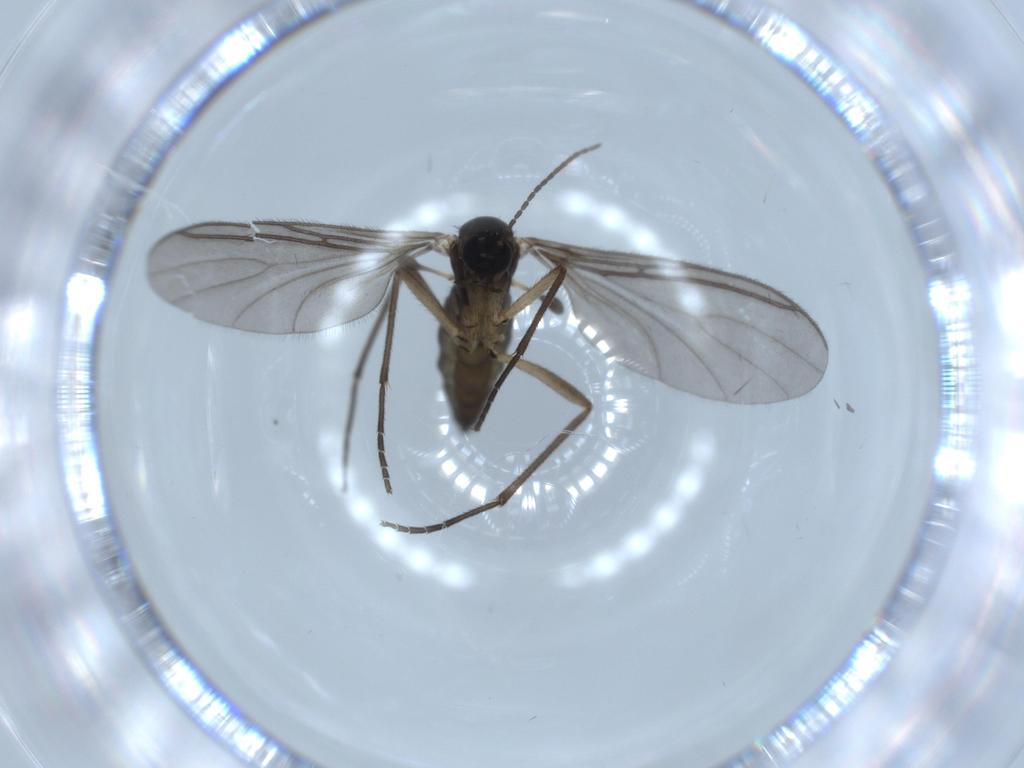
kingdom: Animalia
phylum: Arthropoda
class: Insecta
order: Diptera
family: Sciaridae
